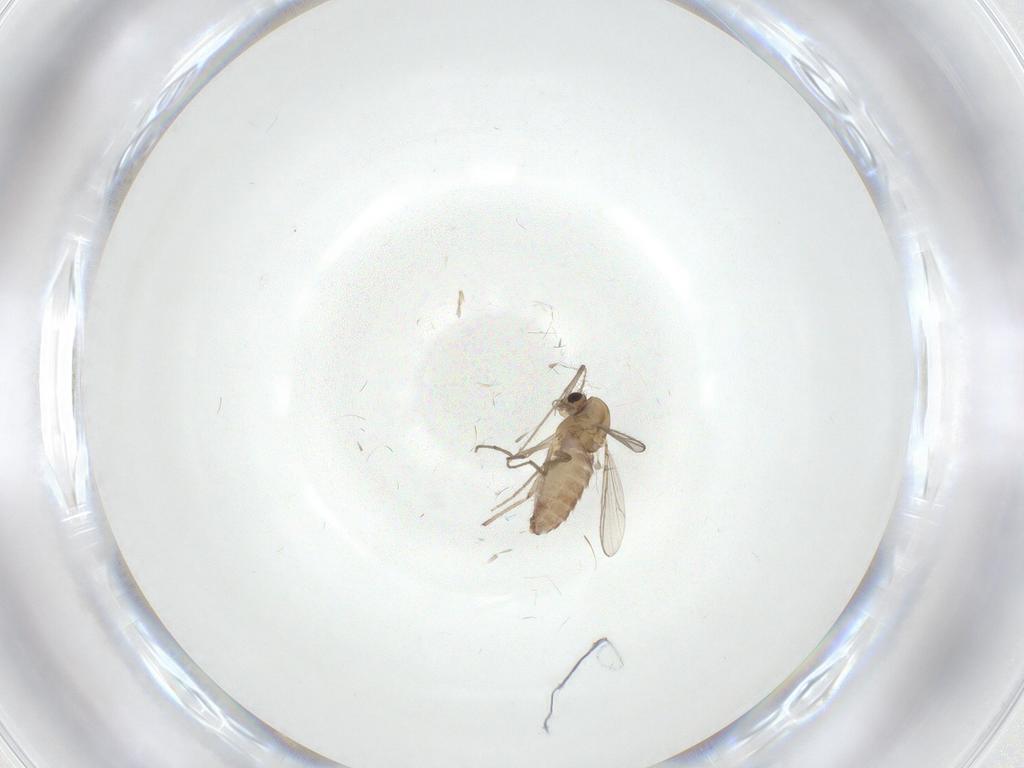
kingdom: Animalia
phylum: Arthropoda
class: Insecta
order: Diptera
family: Chironomidae
